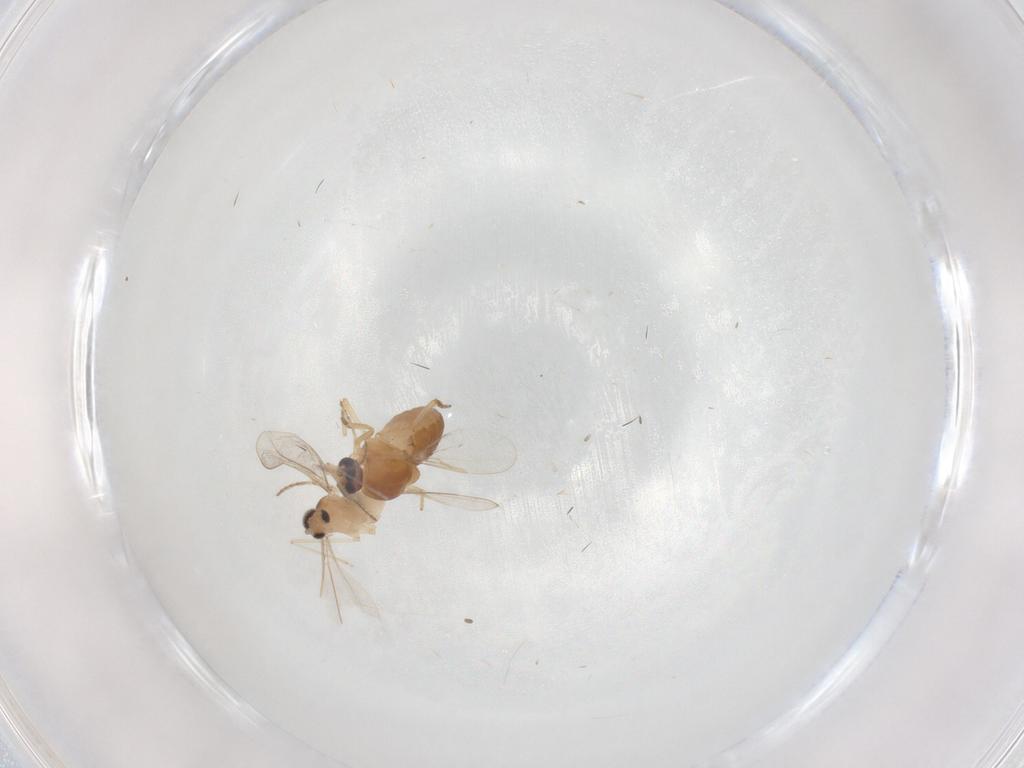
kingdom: Animalia
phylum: Arthropoda
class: Insecta
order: Diptera
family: Ceratopogonidae
